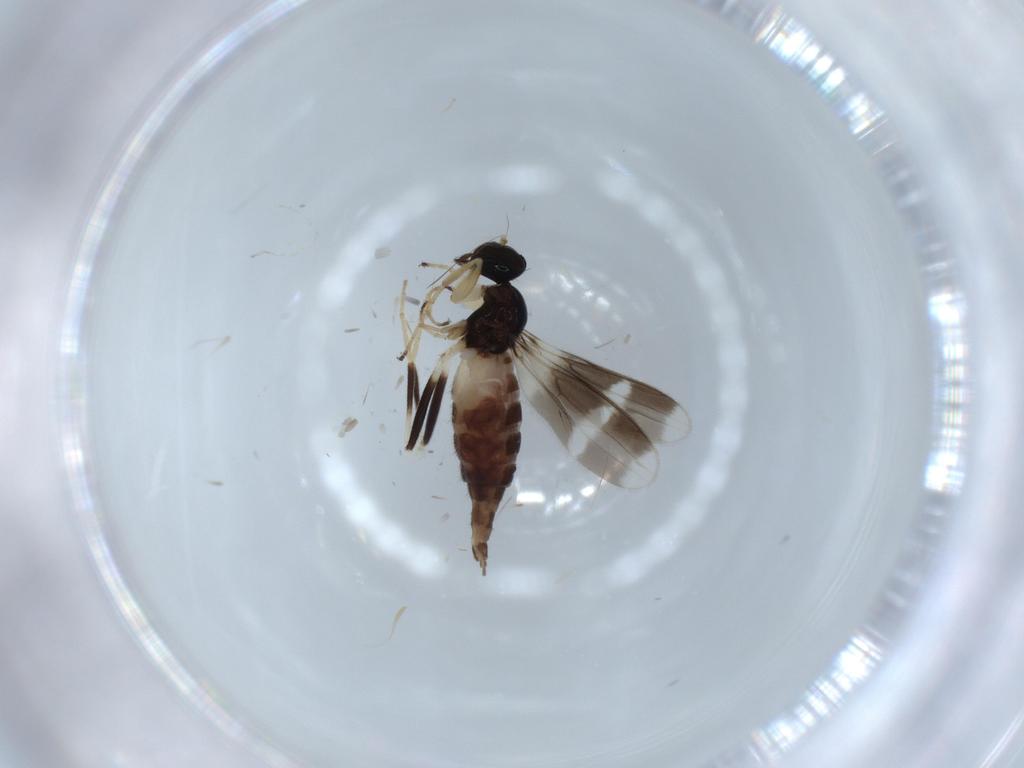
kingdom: Animalia
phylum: Arthropoda
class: Insecta
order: Diptera
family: Hybotidae
